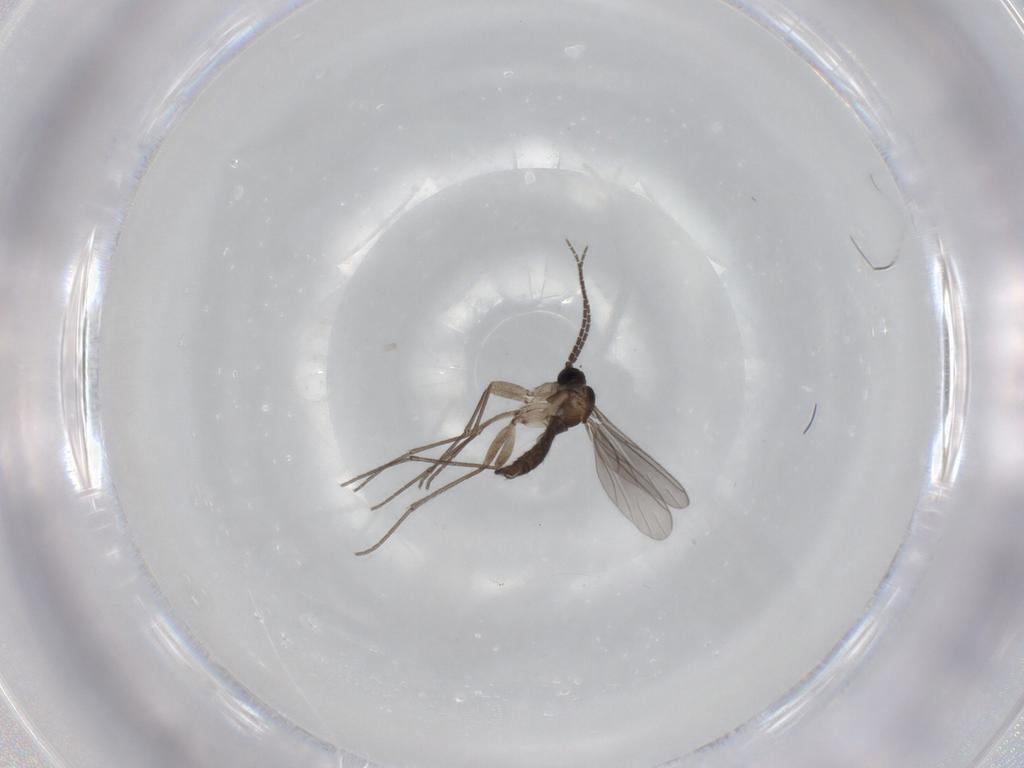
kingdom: Animalia
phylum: Arthropoda
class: Insecta
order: Diptera
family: Sciaridae
